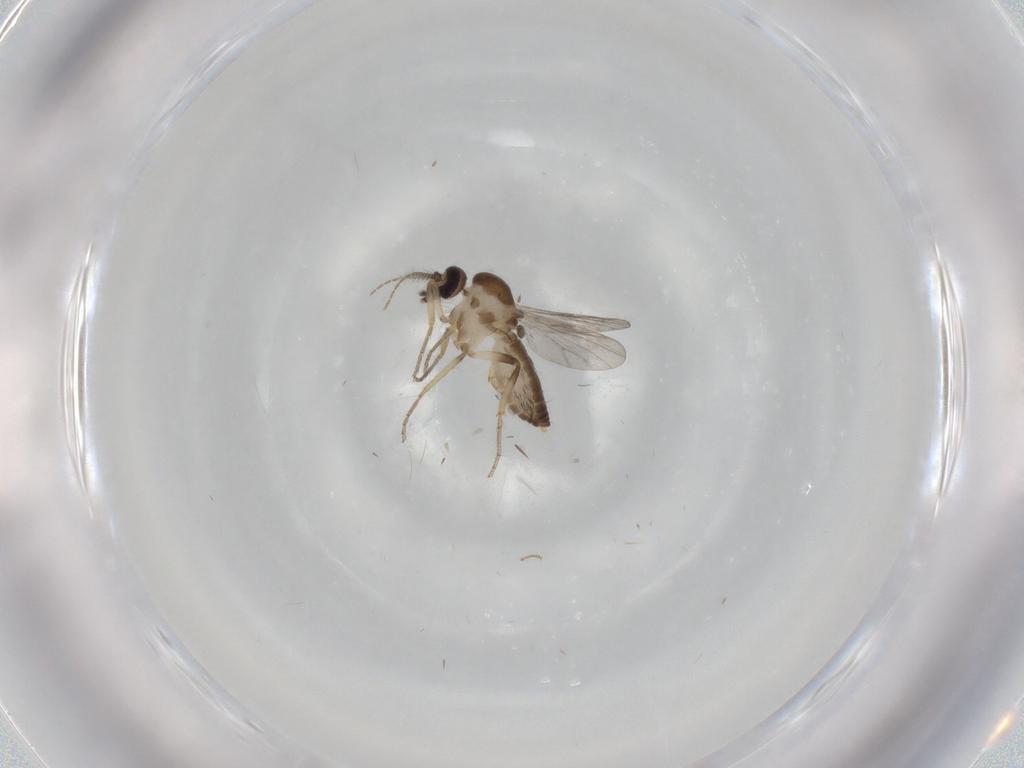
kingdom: Animalia
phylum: Arthropoda
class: Insecta
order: Diptera
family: Ceratopogonidae
